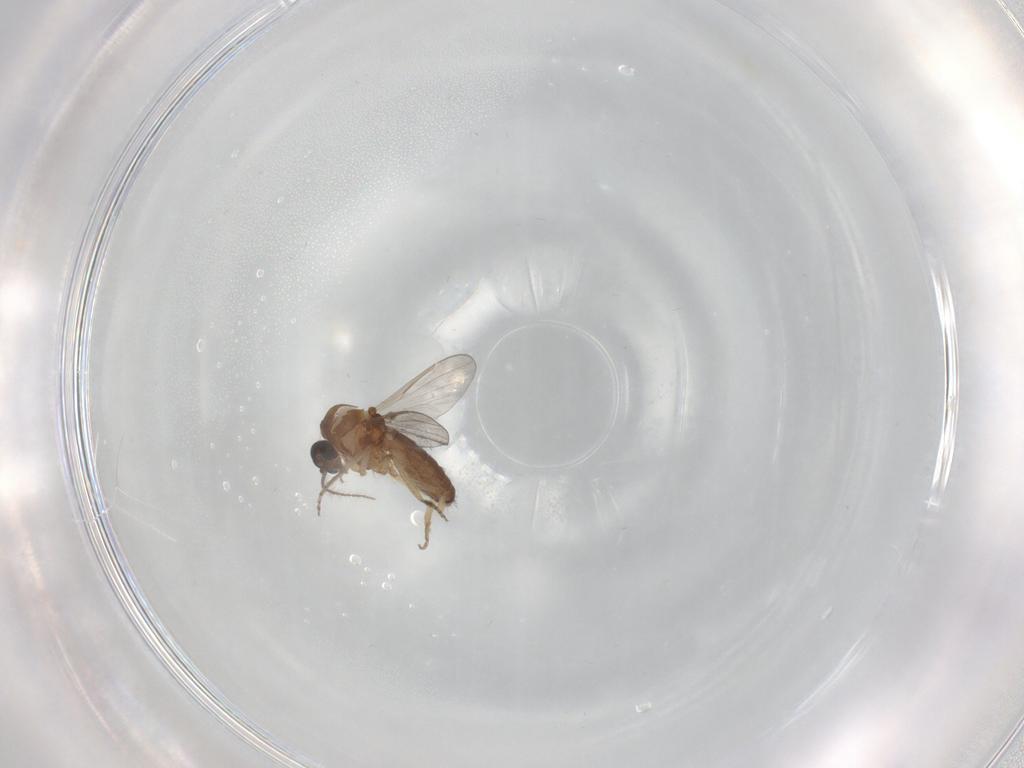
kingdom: Animalia
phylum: Arthropoda
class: Insecta
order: Diptera
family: Ceratopogonidae
